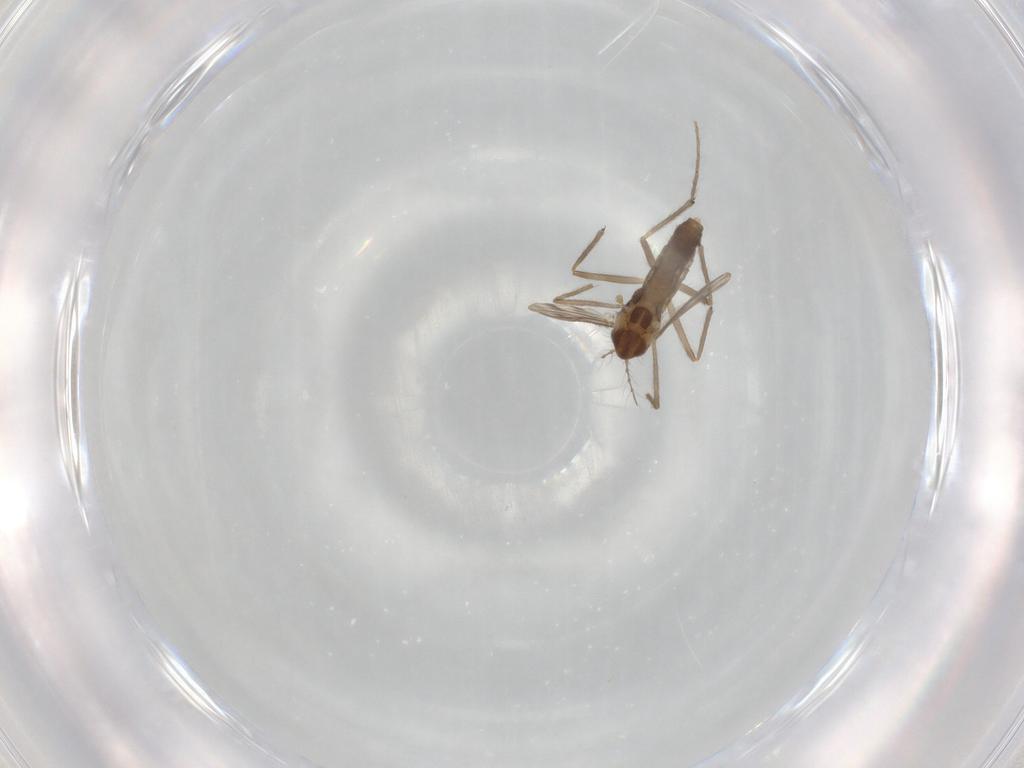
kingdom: Animalia
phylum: Arthropoda
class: Insecta
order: Diptera
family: Chironomidae
